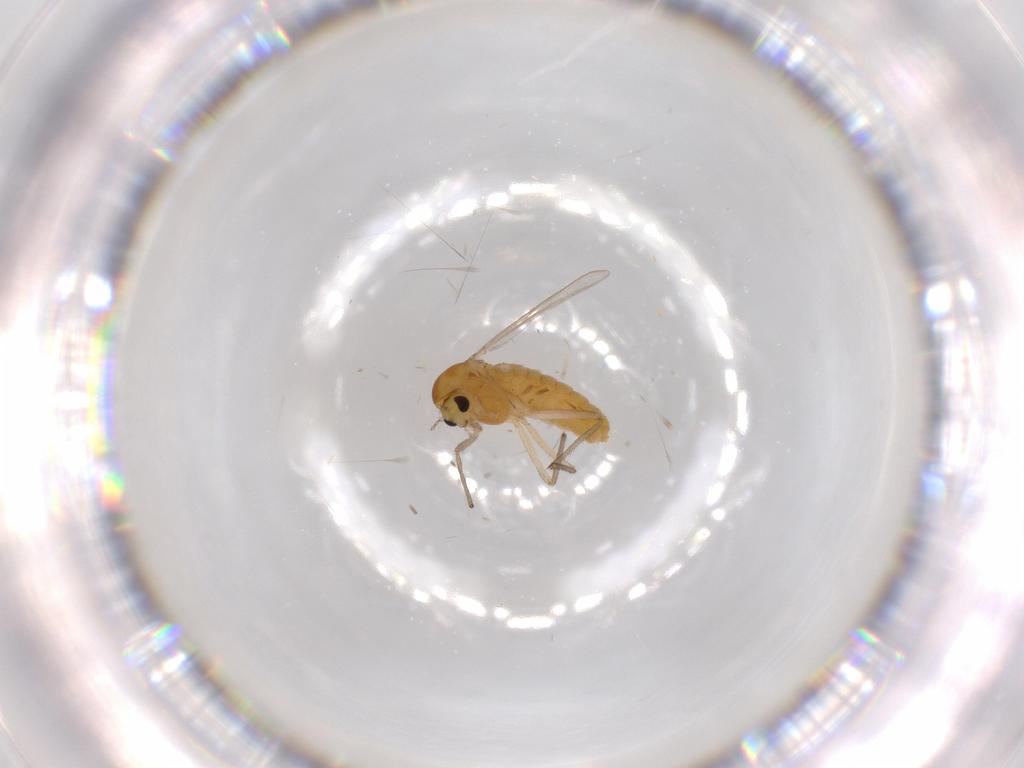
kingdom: Animalia
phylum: Arthropoda
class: Insecta
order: Diptera
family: Chironomidae
